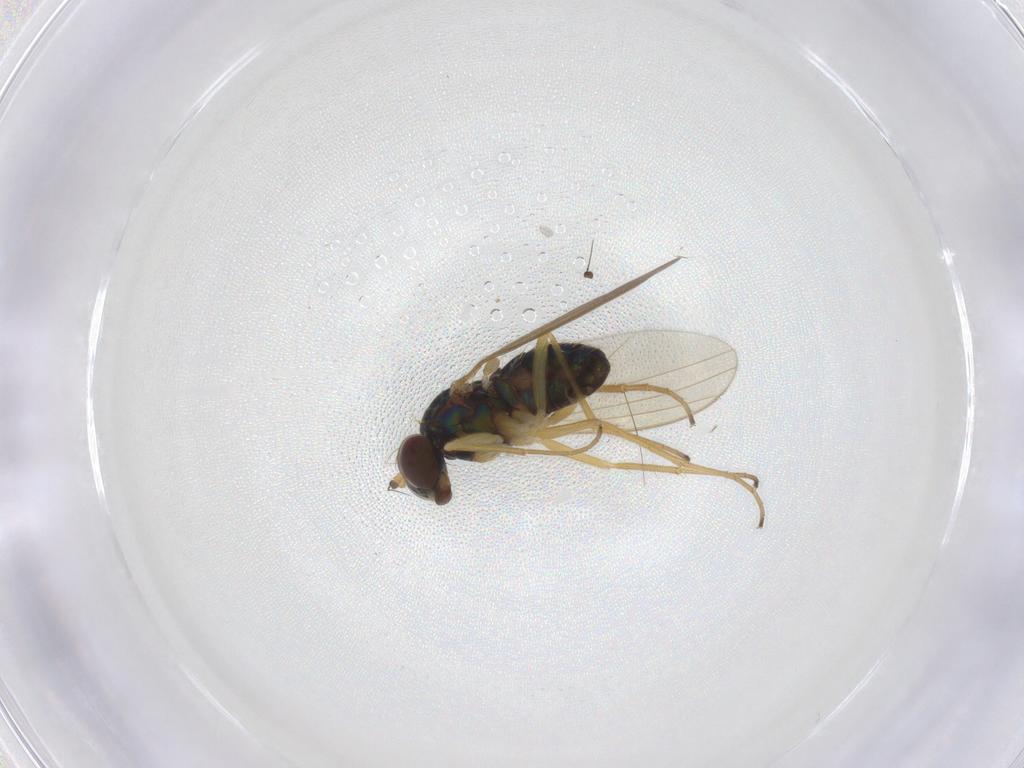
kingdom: Animalia
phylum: Arthropoda
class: Insecta
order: Diptera
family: Dolichopodidae
